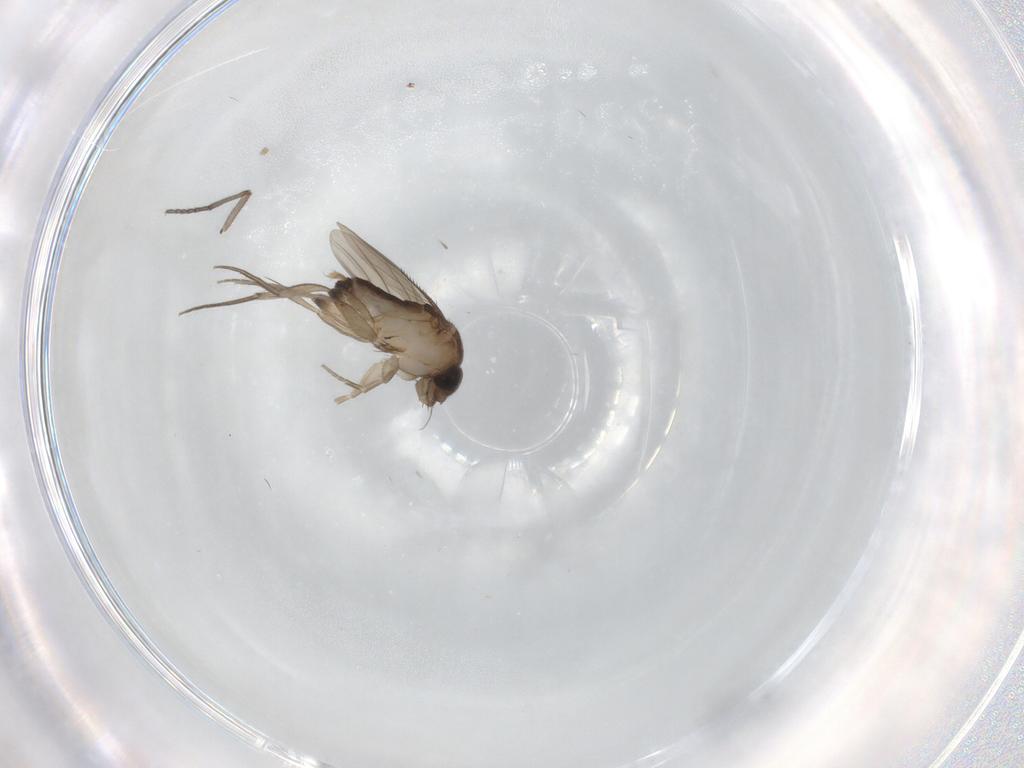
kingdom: Animalia
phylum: Arthropoda
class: Insecta
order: Diptera
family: Phoridae
